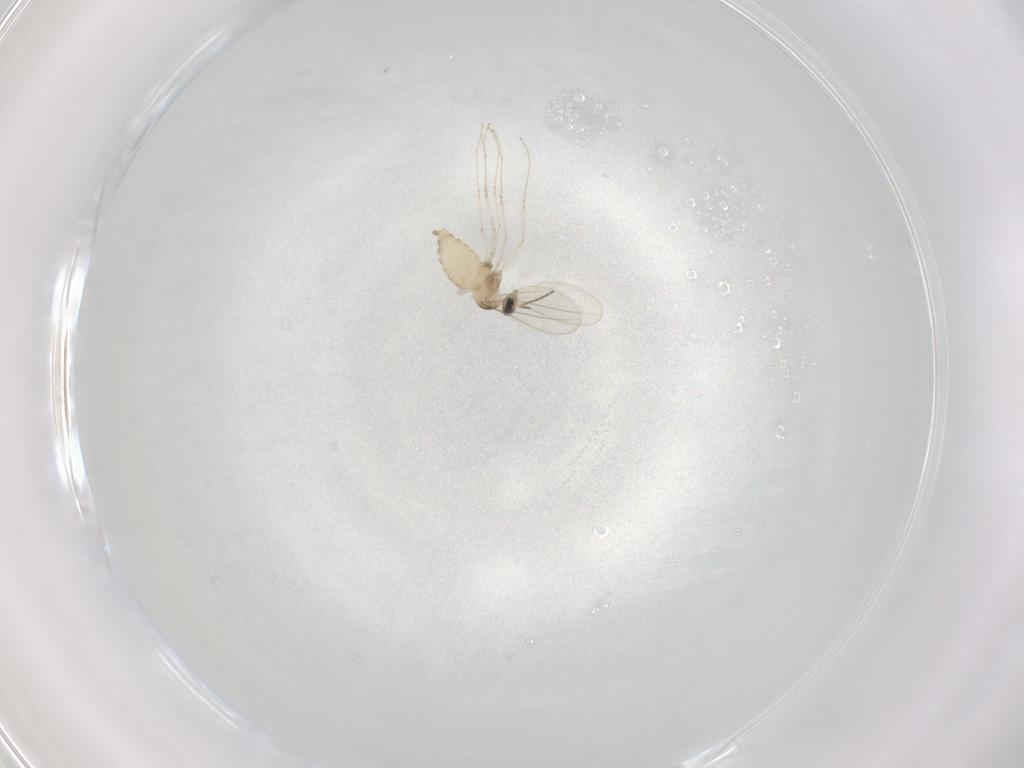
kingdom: Animalia
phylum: Arthropoda
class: Insecta
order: Diptera
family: Cecidomyiidae
